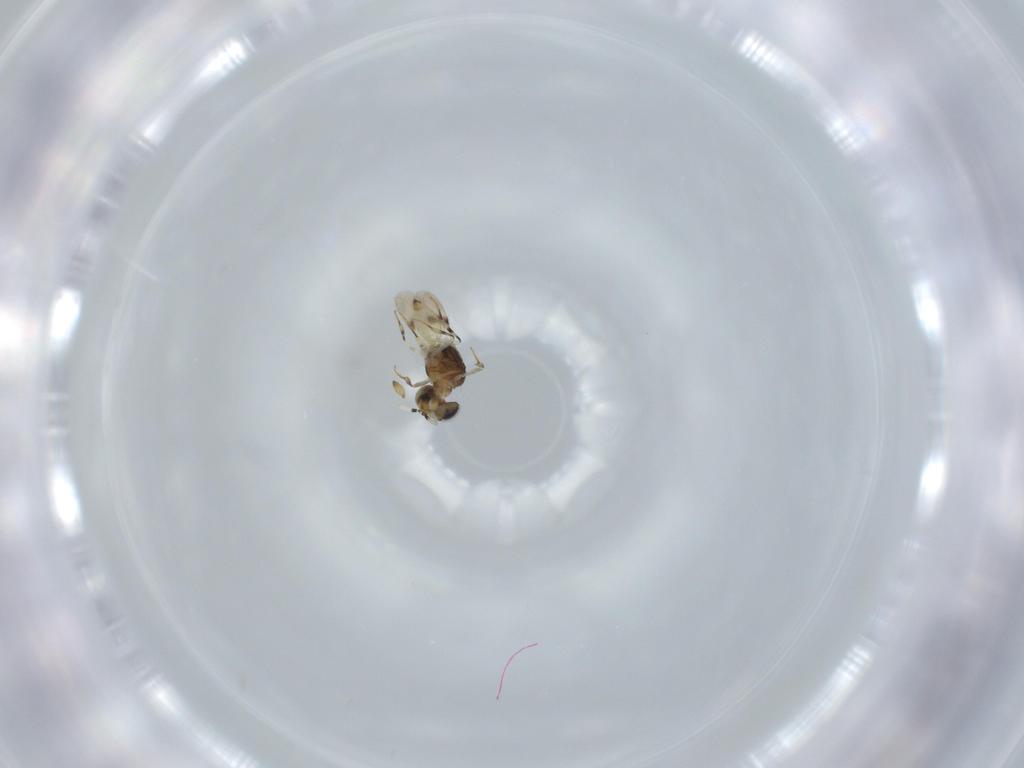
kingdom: Animalia
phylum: Arthropoda
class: Insecta
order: Hymenoptera
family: Scelionidae
